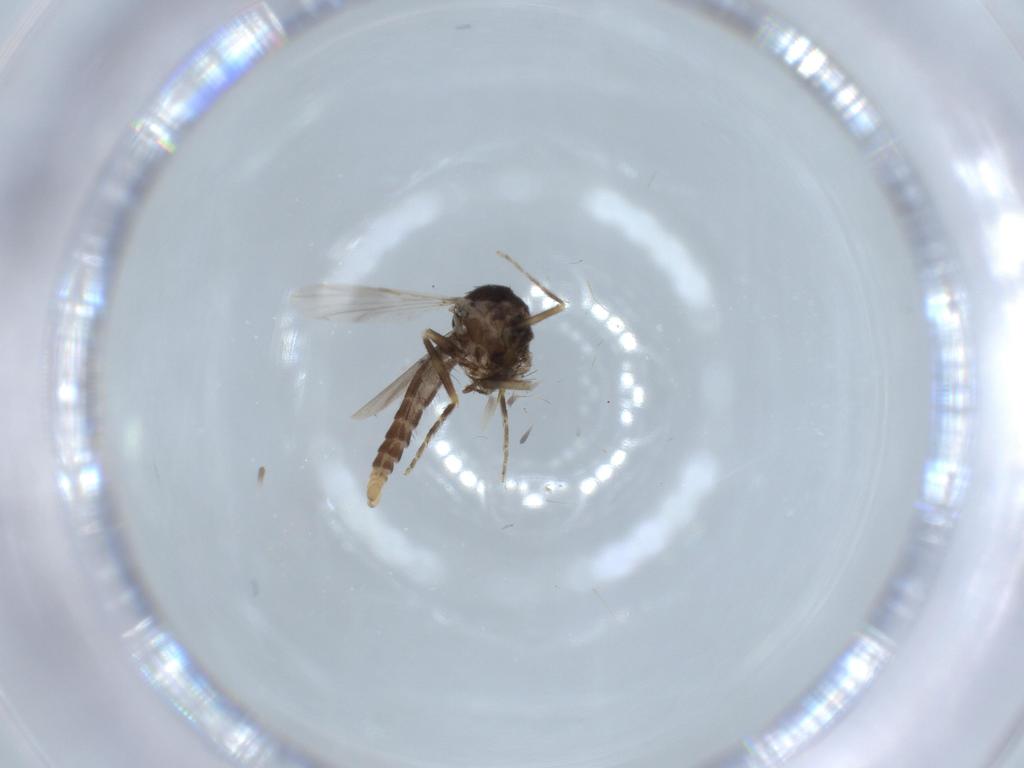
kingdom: Animalia
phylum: Arthropoda
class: Insecta
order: Diptera
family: Ceratopogonidae
